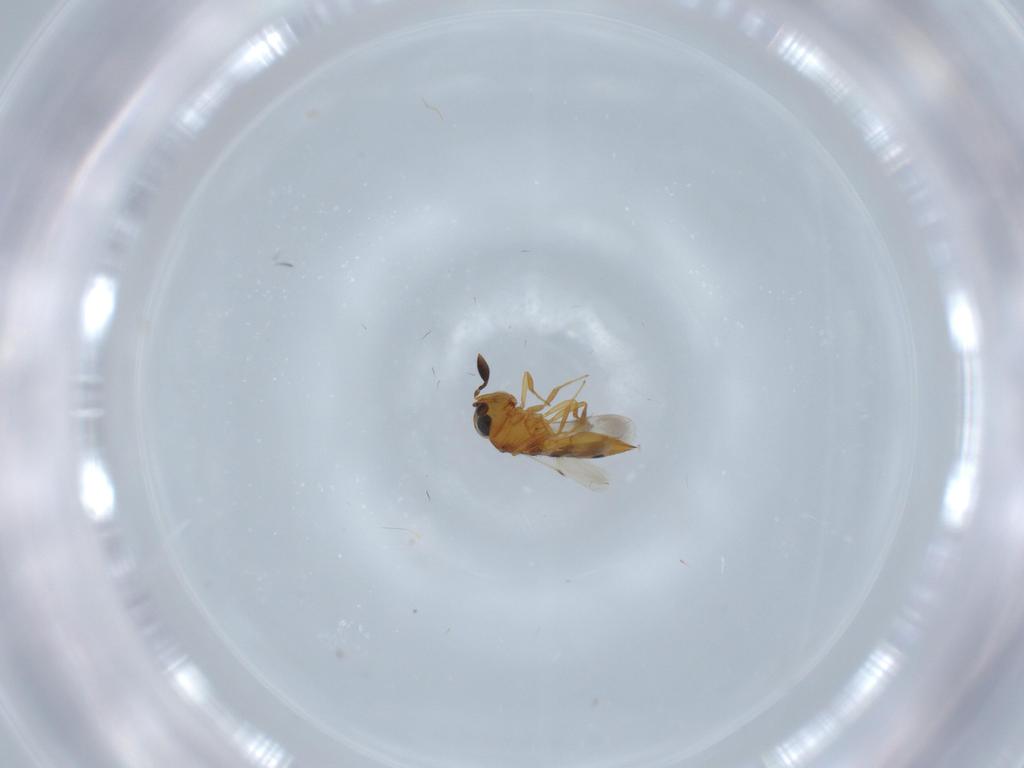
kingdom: Animalia
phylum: Arthropoda
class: Insecta
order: Hymenoptera
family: Scelionidae
